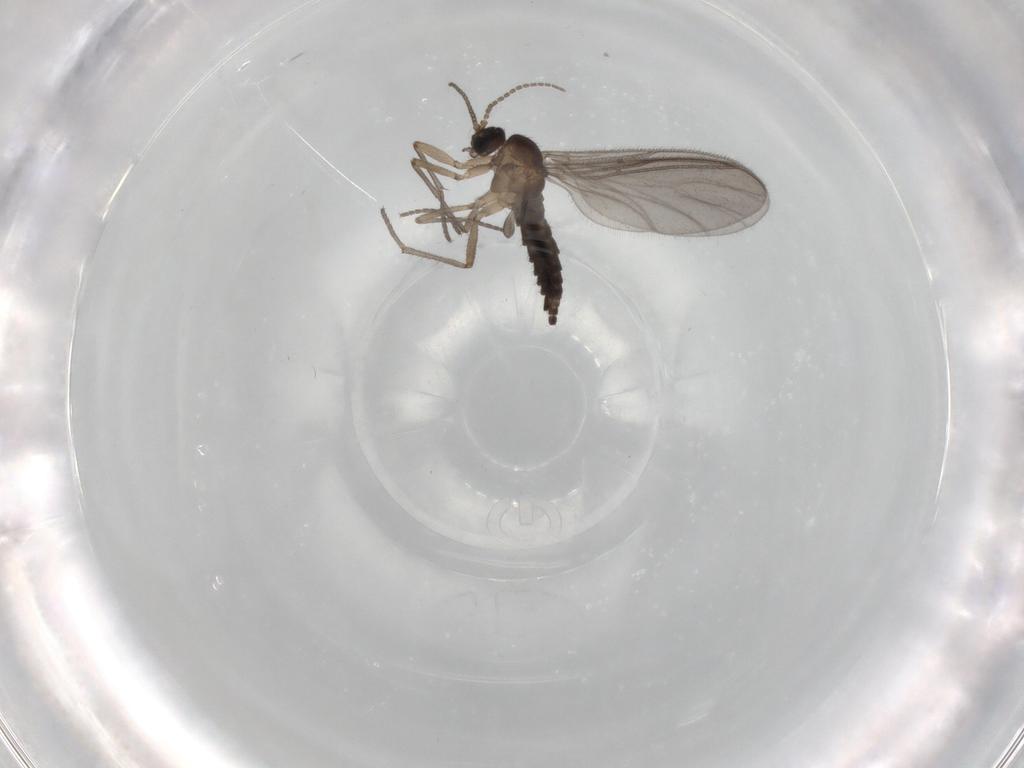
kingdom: Animalia
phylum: Arthropoda
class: Insecta
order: Diptera
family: Sciaridae
